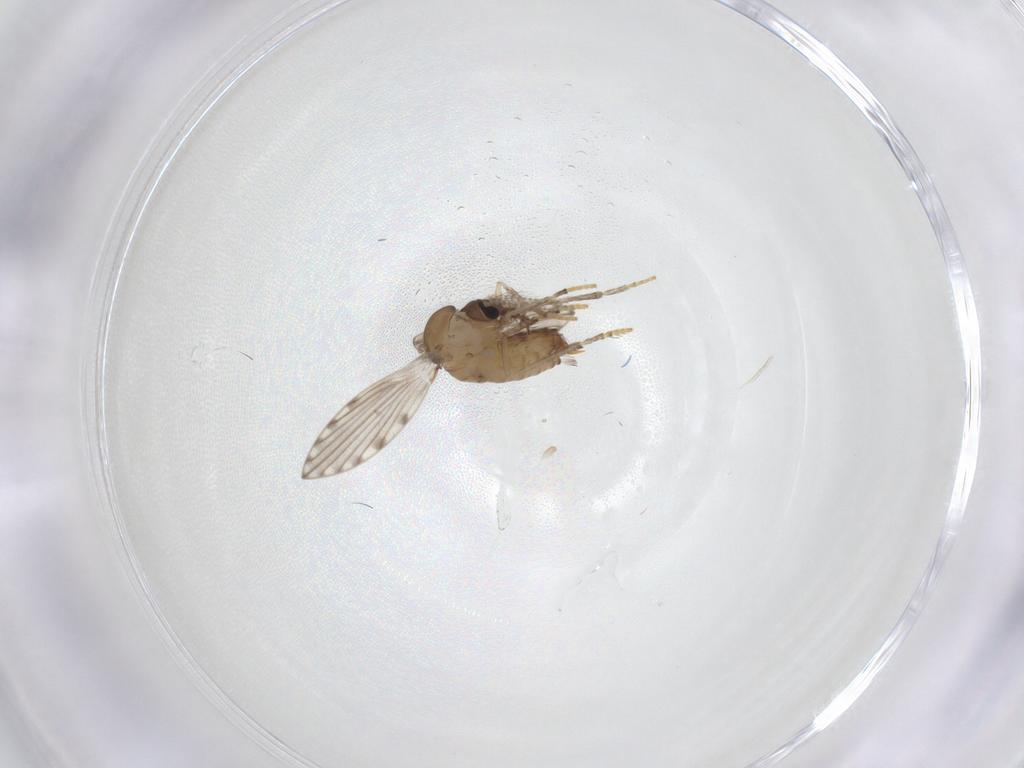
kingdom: Animalia
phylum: Arthropoda
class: Insecta
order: Diptera
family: Psychodidae
